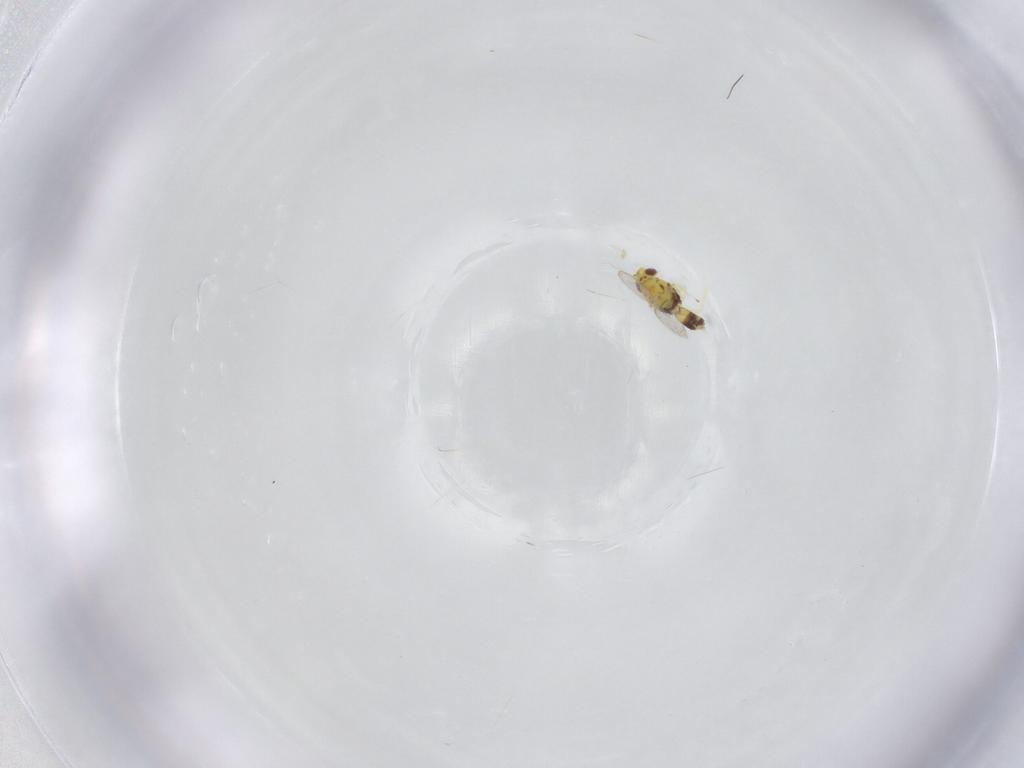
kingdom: Animalia
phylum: Arthropoda
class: Insecta
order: Hymenoptera
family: Eulophidae
